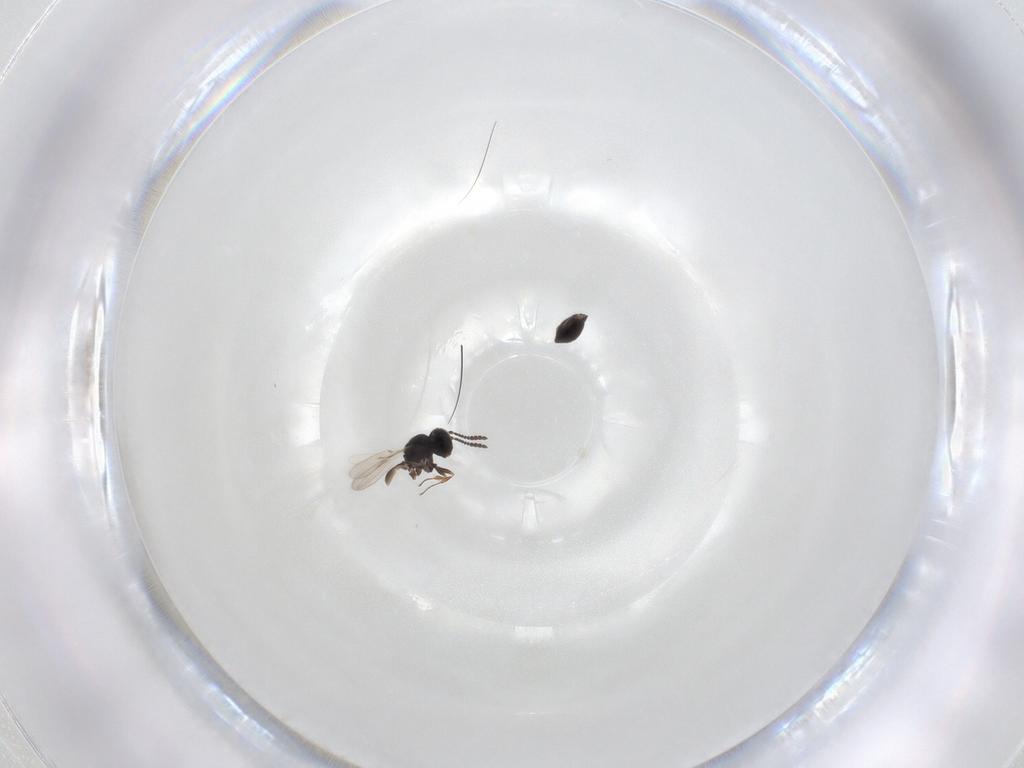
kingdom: Animalia
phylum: Arthropoda
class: Insecta
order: Hymenoptera
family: Scelionidae
